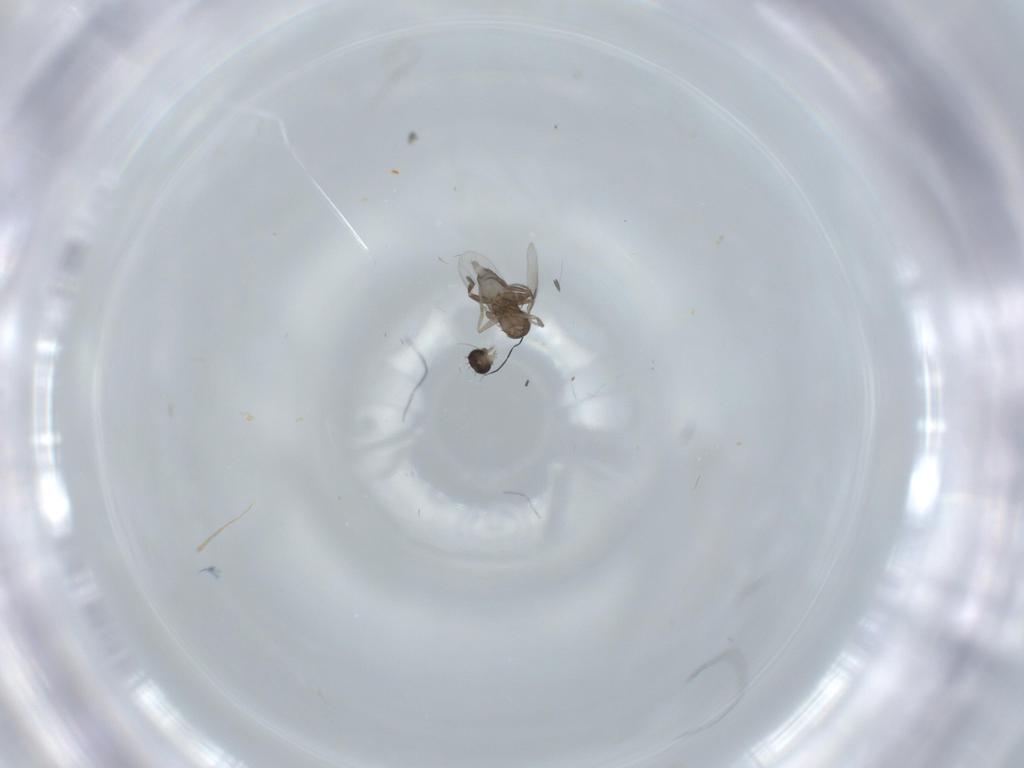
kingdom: Animalia
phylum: Arthropoda
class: Insecta
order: Diptera
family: Phoridae
